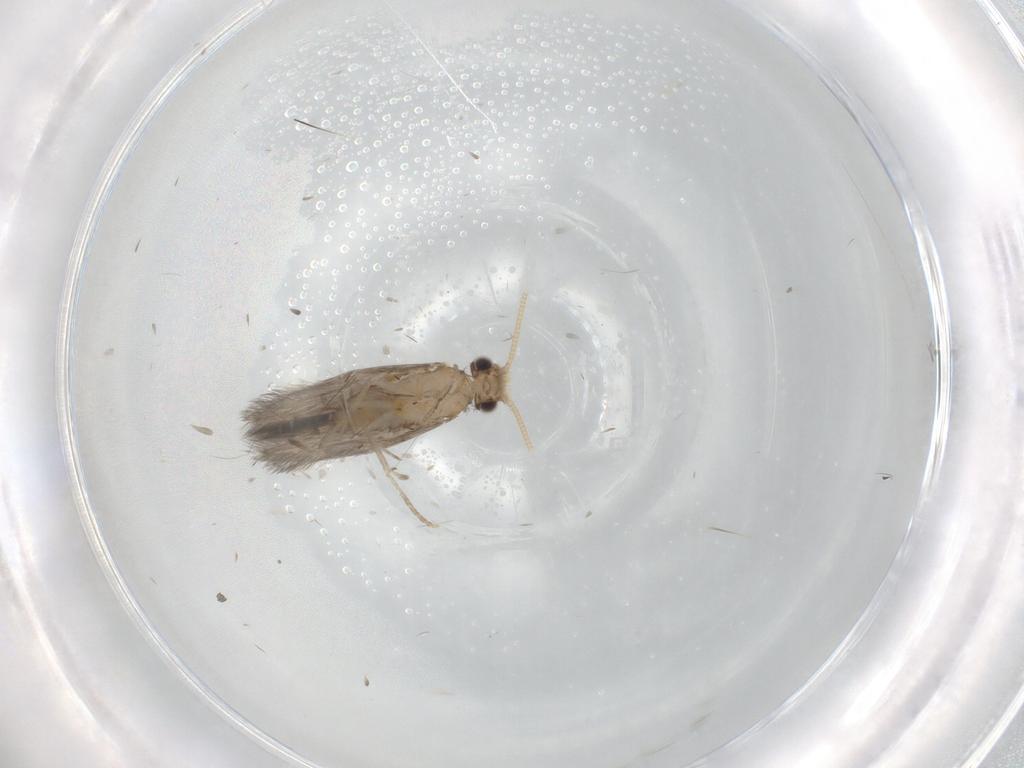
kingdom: Animalia
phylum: Arthropoda
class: Insecta
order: Trichoptera
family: Hydroptilidae
